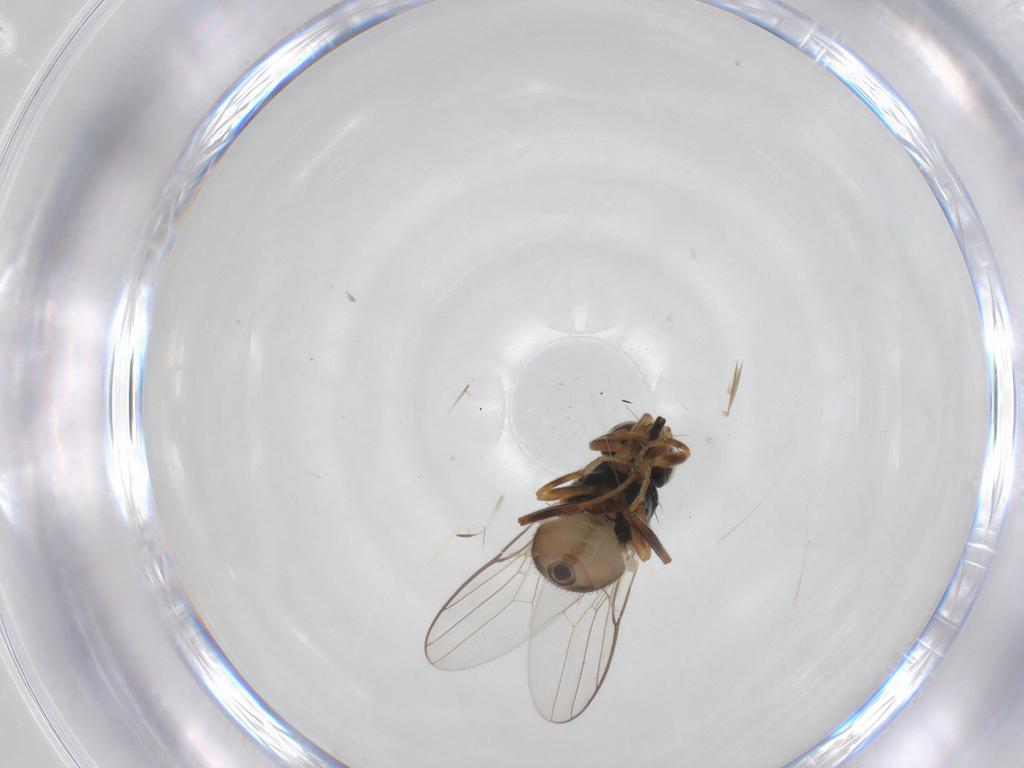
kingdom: Animalia
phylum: Arthropoda
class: Insecta
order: Diptera
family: Chloropidae
